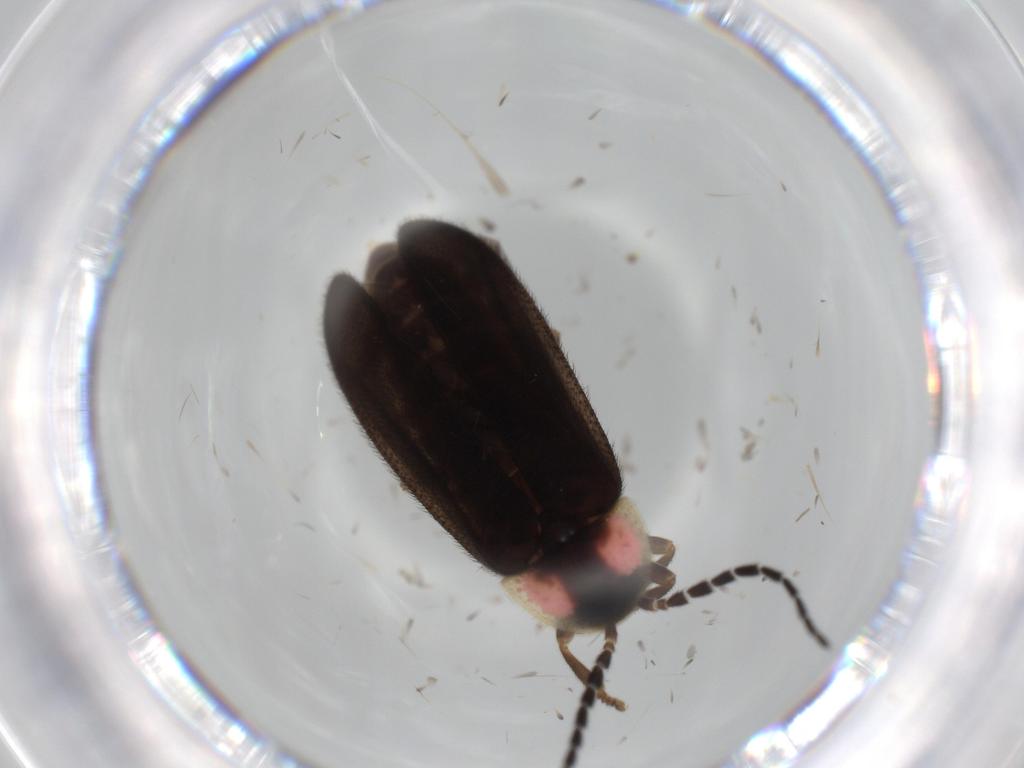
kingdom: Animalia
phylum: Arthropoda
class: Insecta
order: Coleoptera
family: Lampyridae
